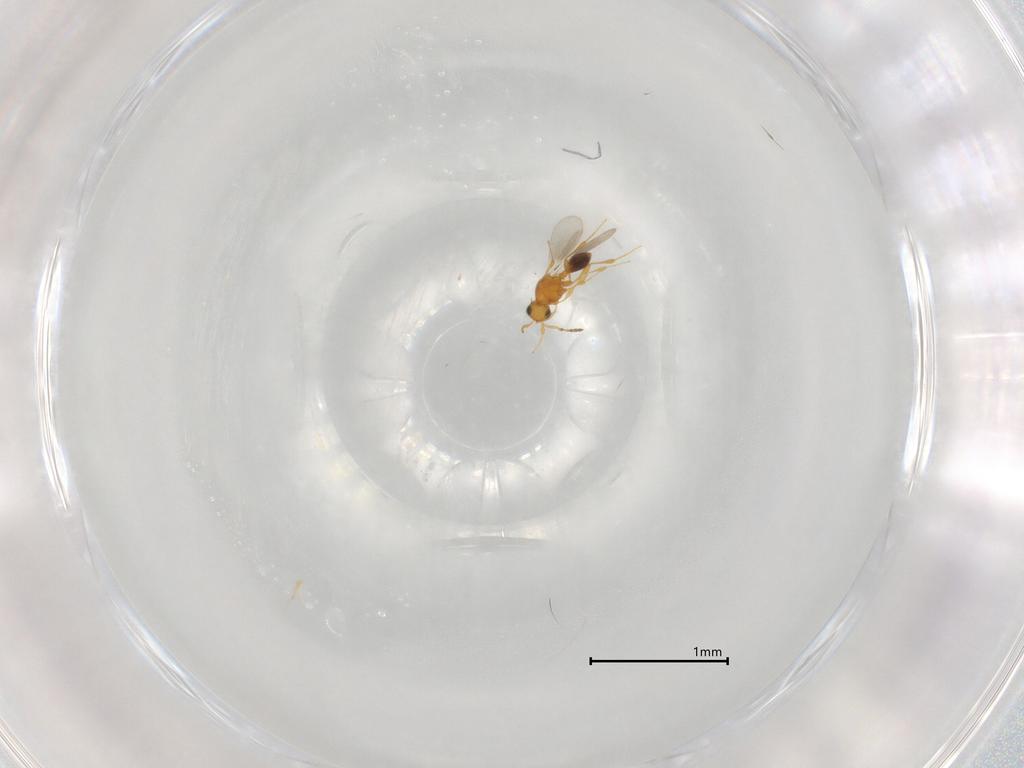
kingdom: Animalia
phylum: Arthropoda
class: Insecta
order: Hymenoptera
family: Platygastridae
